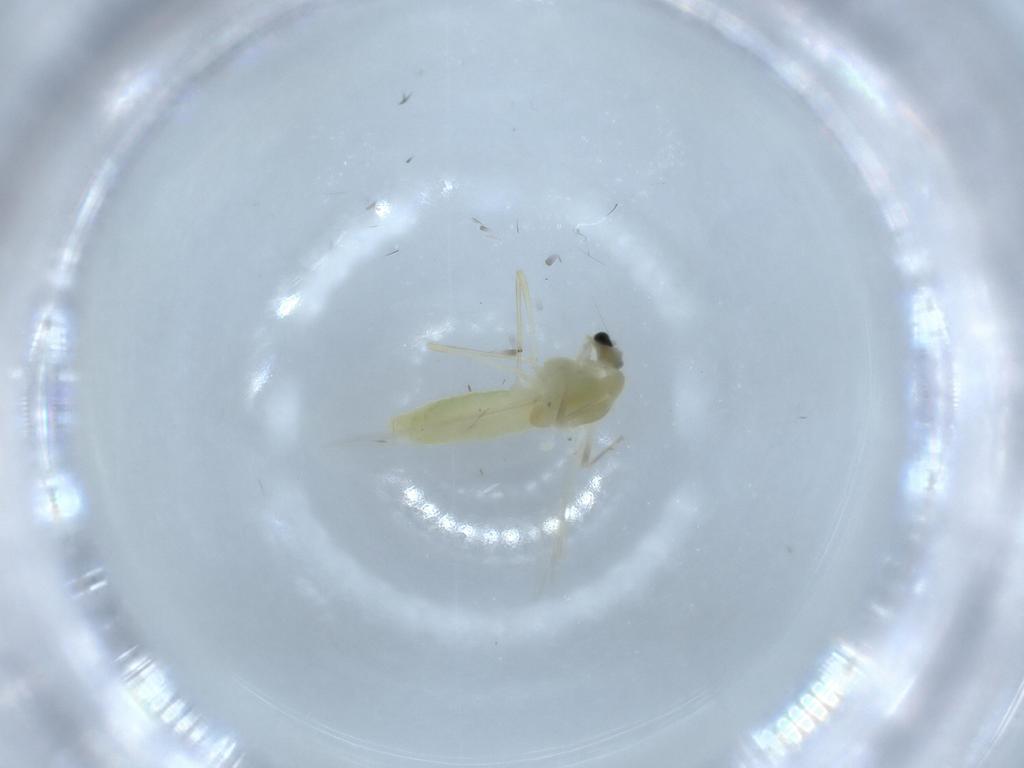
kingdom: Animalia
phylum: Arthropoda
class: Insecta
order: Diptera
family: Chironomidae
